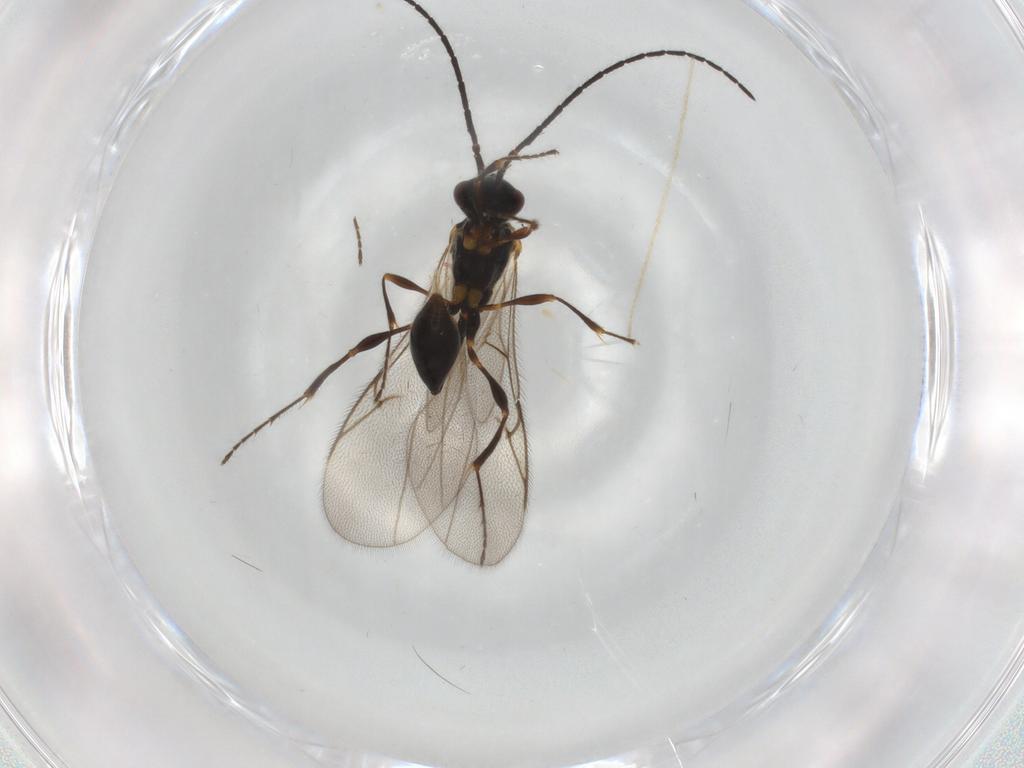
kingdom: Animalia
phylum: Arthropoda
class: Insecta
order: Hymenoptera
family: Diapriidae
